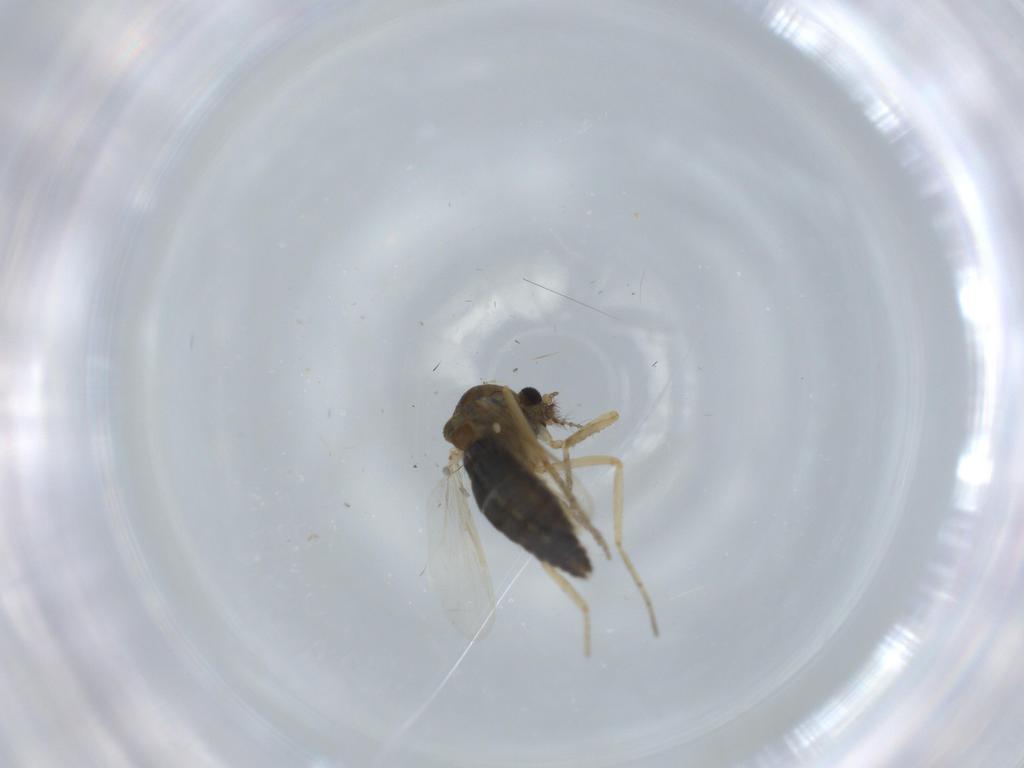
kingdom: Animalia
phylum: Arthropoda
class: Insecta
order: Diptera
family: Ceratopogonidae
